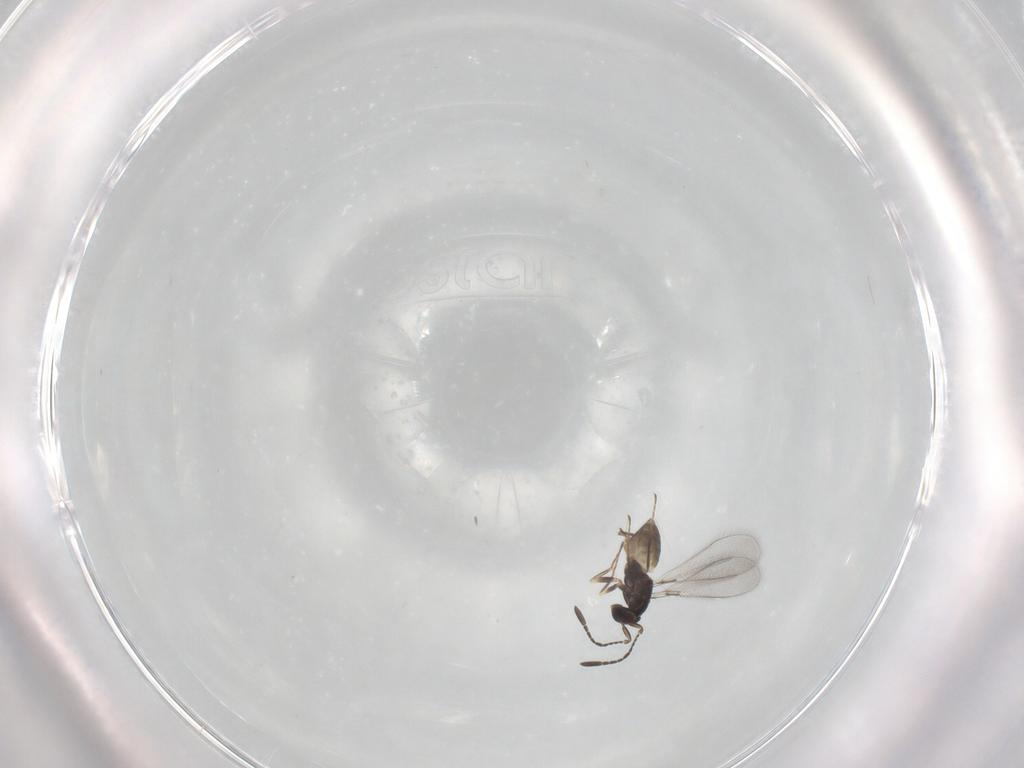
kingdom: Animalia
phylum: Arthropoda
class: Insecta
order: Hymenoptera
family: Mymaridae
